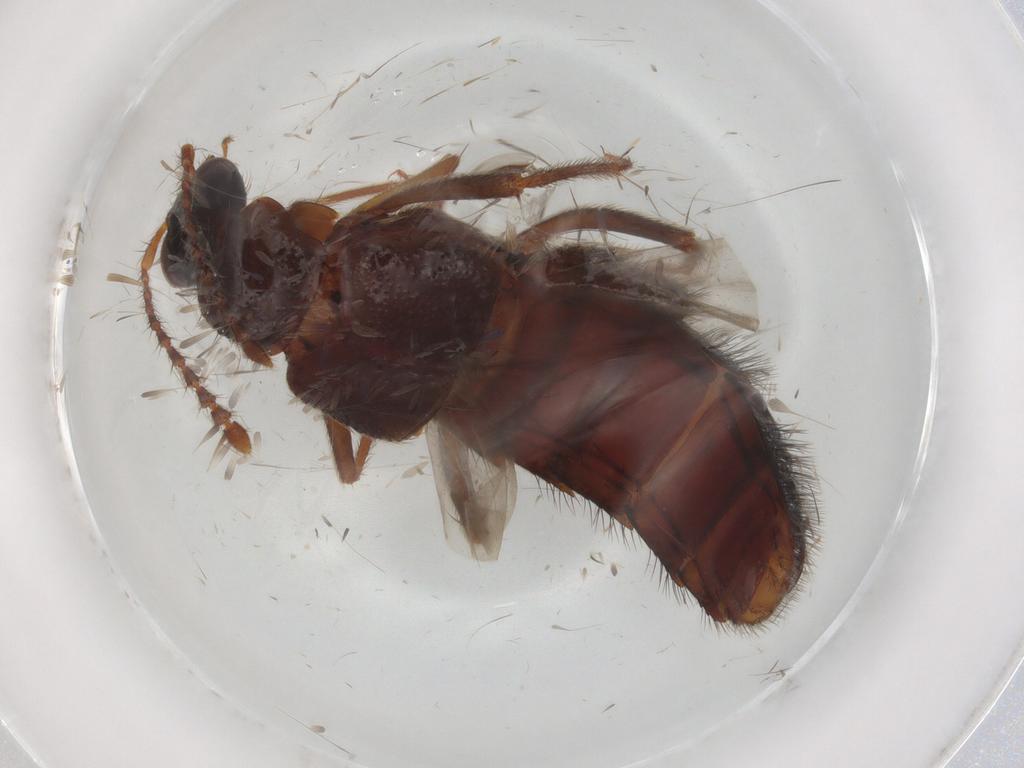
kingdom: Animalia
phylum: Arthropoda
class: Insecta
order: Coleoptera
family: Staphylinidae
